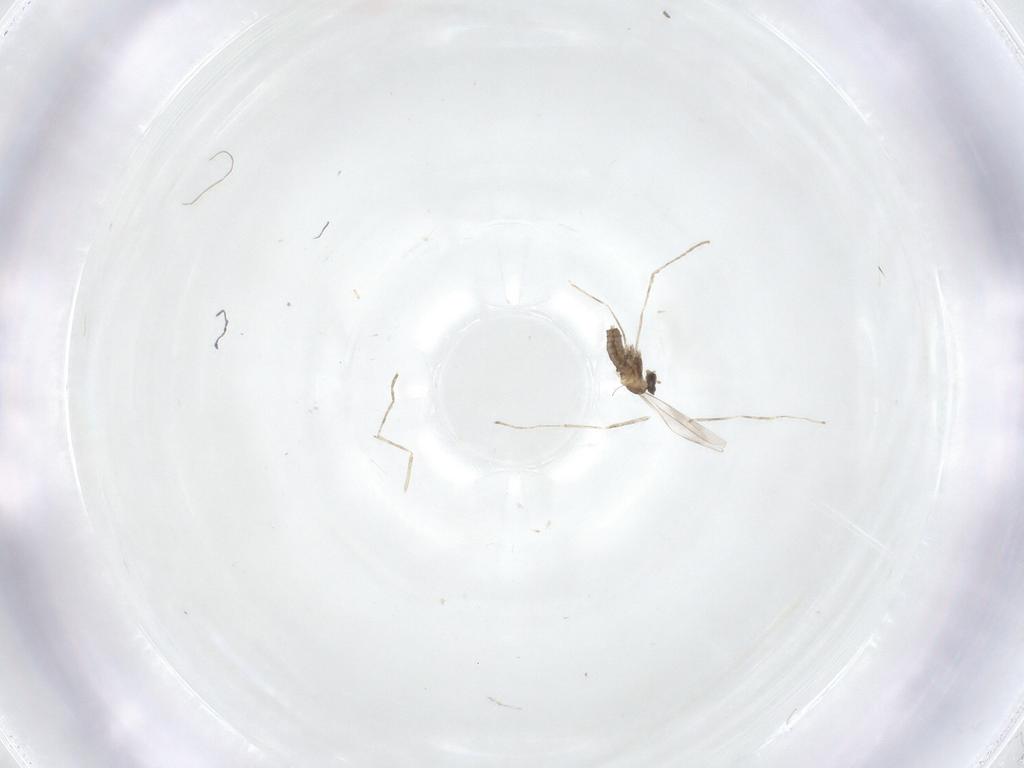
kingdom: Animalia
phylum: Arthropoda
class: Insecta
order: Diptera
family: Cecidomyiidae
